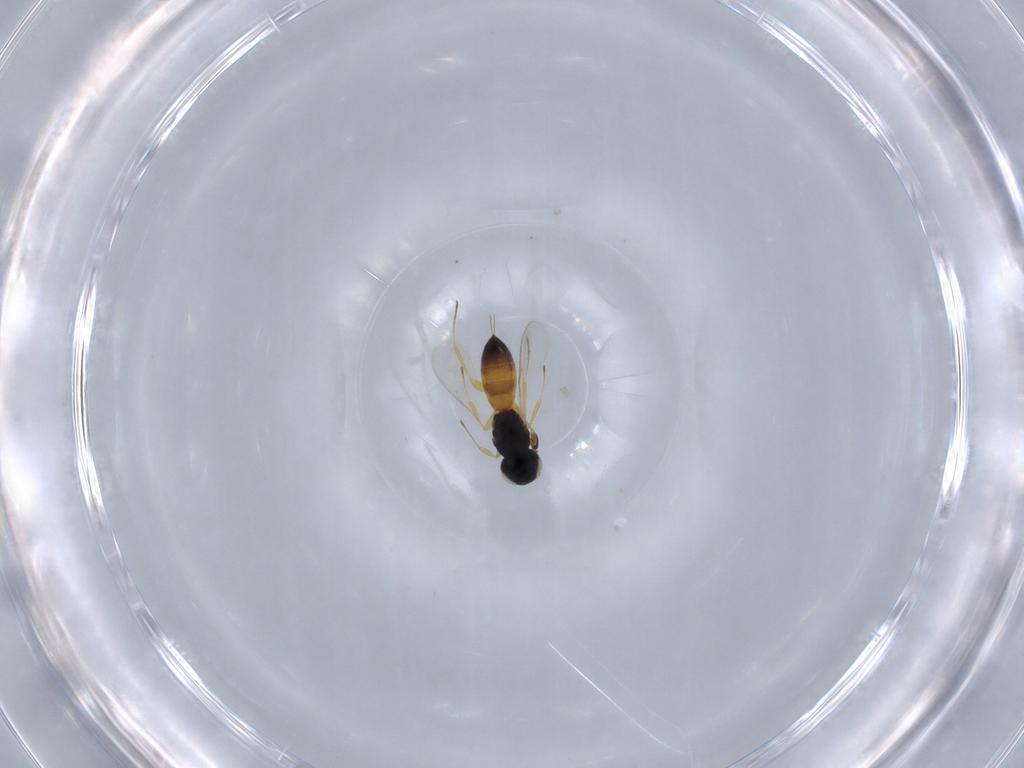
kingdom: Animalia
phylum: Arthropoda
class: Insecta
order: Hymenoptera
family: Scelionidae
